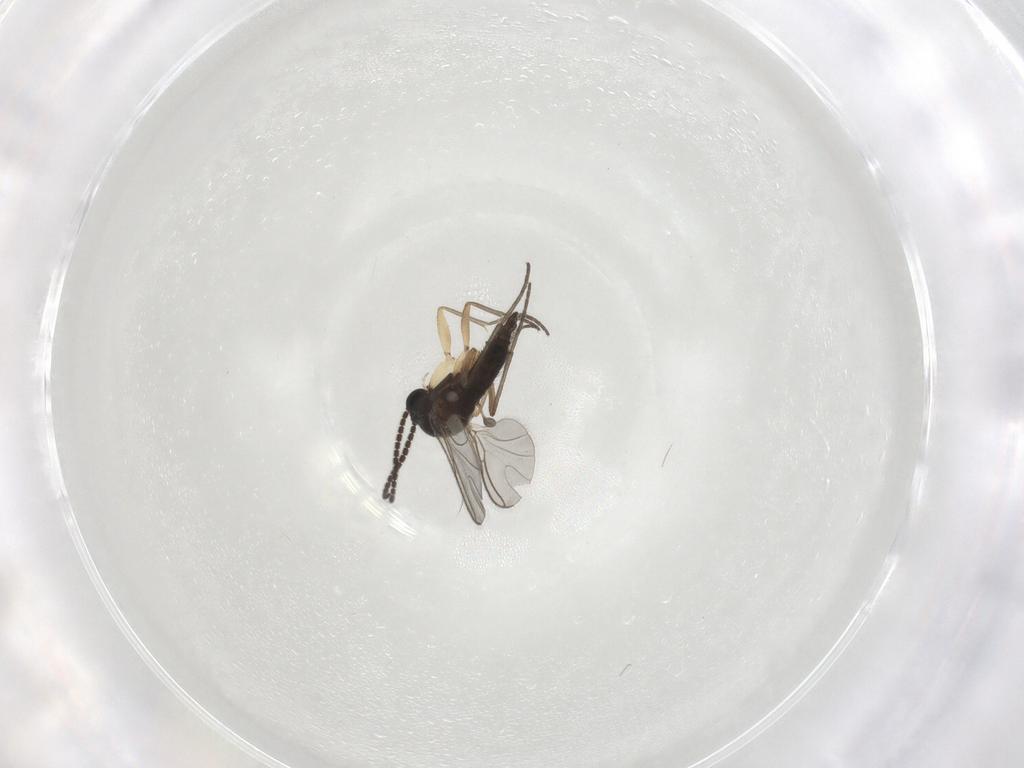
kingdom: Animalia
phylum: Arthropoda
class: Insecta
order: Diptera
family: Sciaridae
